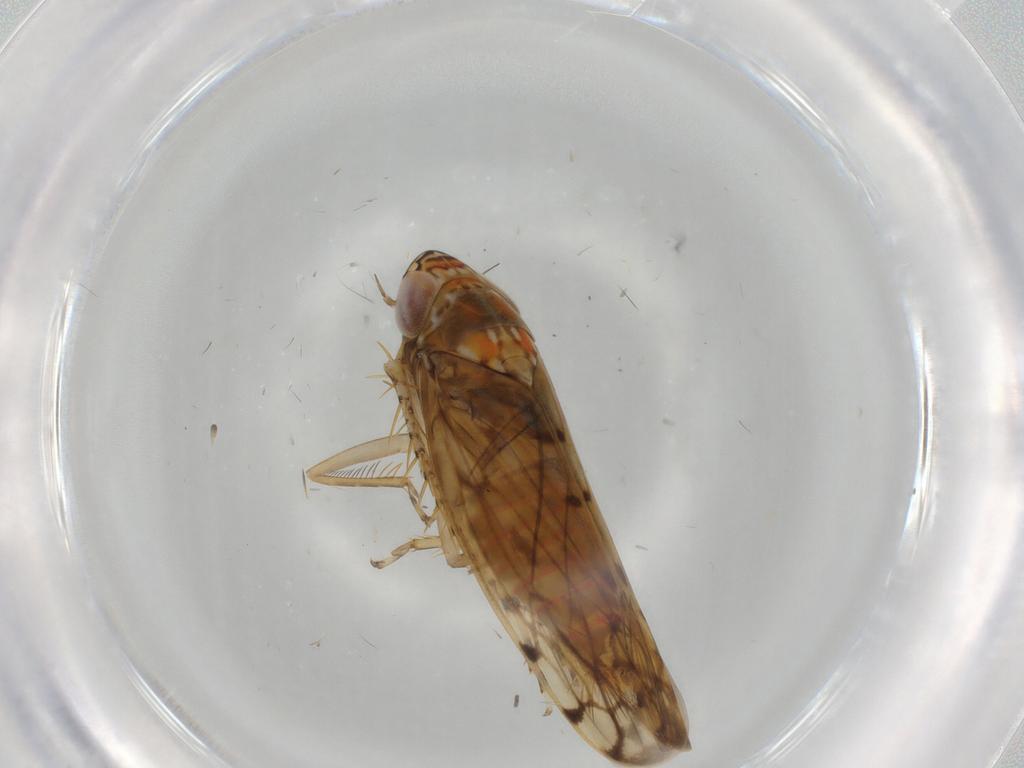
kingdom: Animalia
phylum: Arthropoda
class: Insecta
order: Hemiptera
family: Cicadellidae
